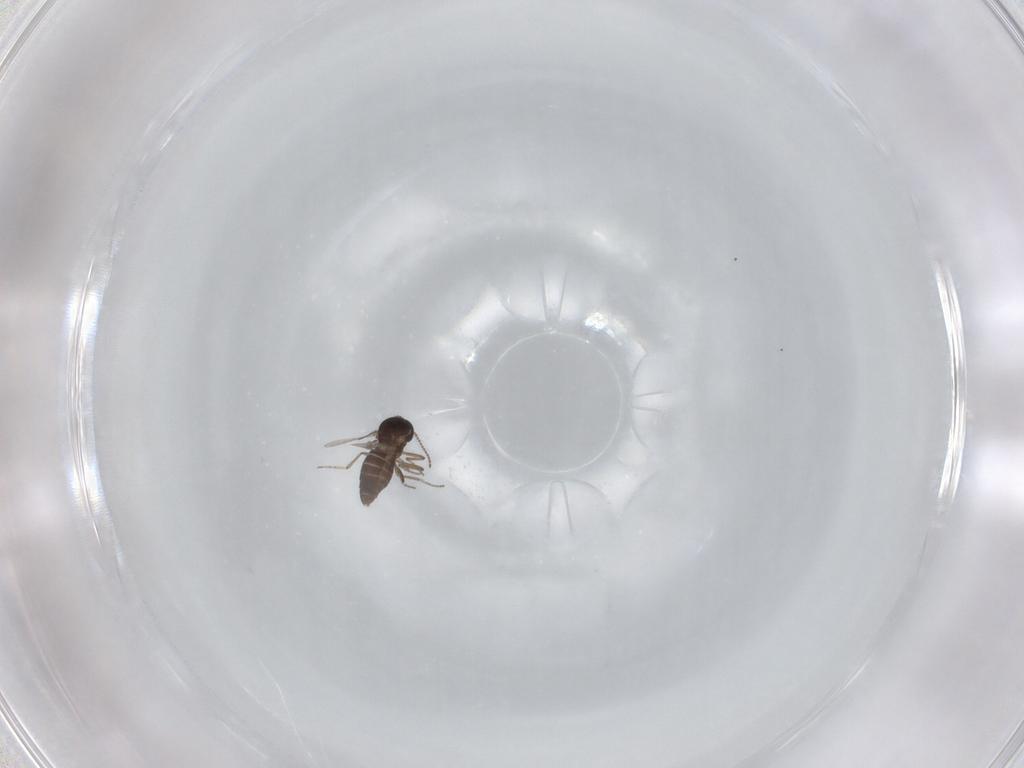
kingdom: Animalia
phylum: Arthropoda
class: Insecta
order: Diptera
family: Ceratopogonidae
